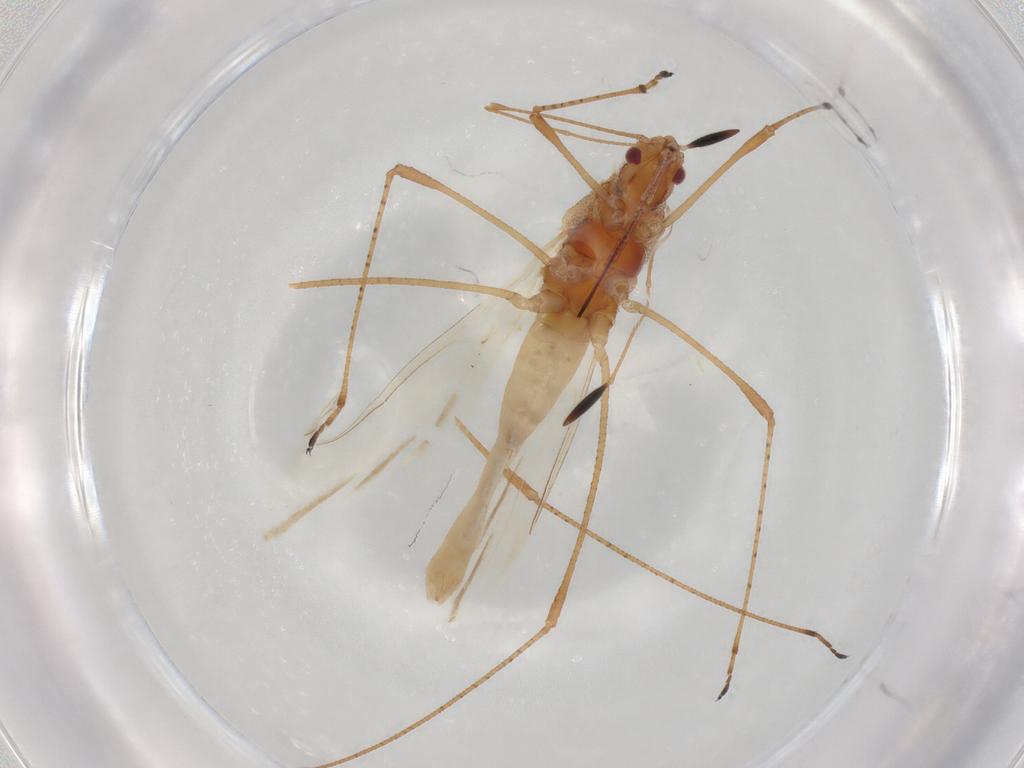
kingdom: Animalia
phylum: Arthropoda
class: Insecta
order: Hemiptera
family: Cymidae
